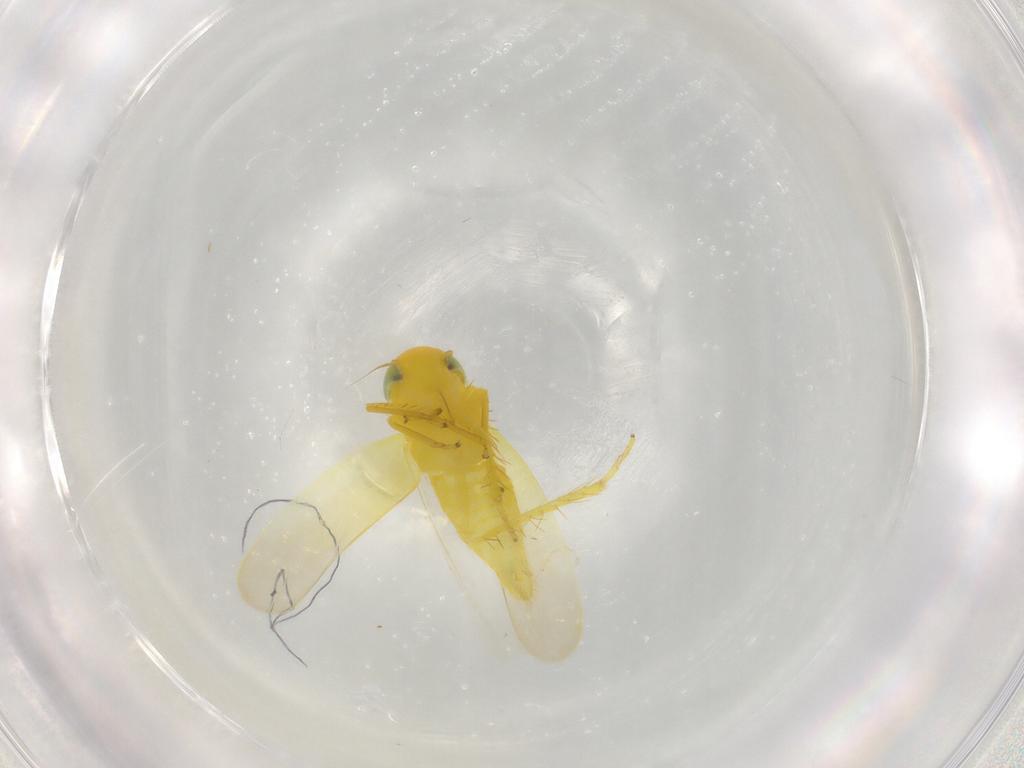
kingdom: Animalia
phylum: Arthropoda
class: Insecta
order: Hemiptera
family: Cicadellidae
